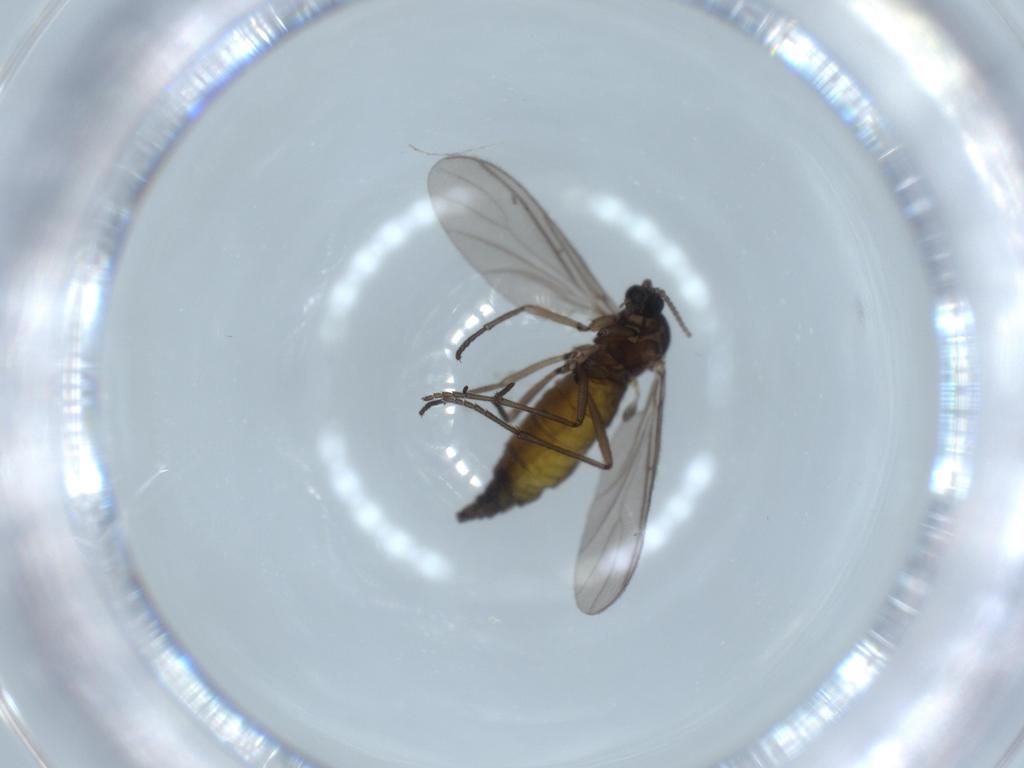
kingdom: Animalia
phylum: Arthropoda
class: Insecta
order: Diptera
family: Sciaridae
